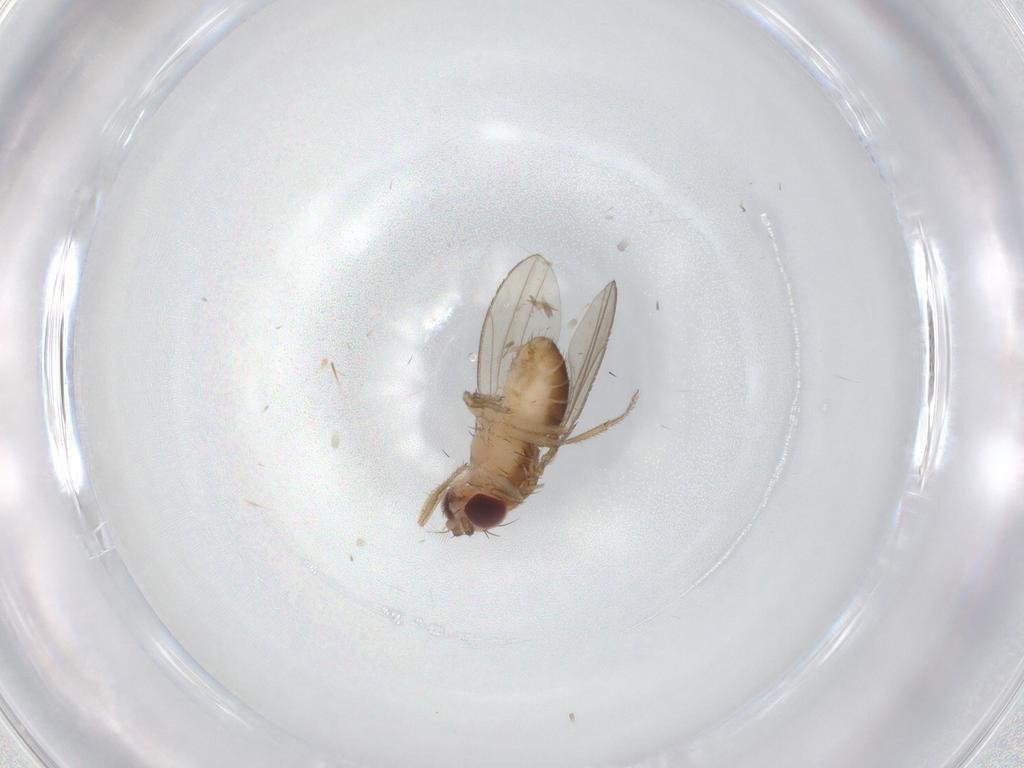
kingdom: Animalia
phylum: Arthropoda
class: Insecta
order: Diptera
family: Drosophilidae
